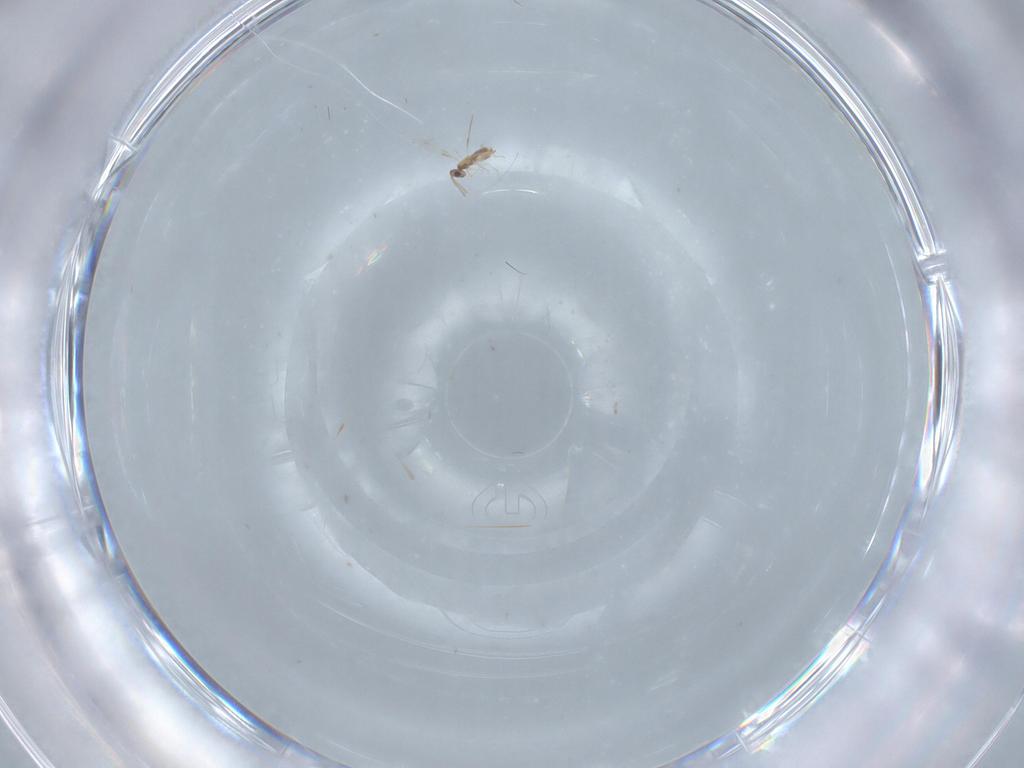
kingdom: Animalia
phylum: Arthropoda
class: Insecta
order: Hymenoptera
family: Aphelinidae
